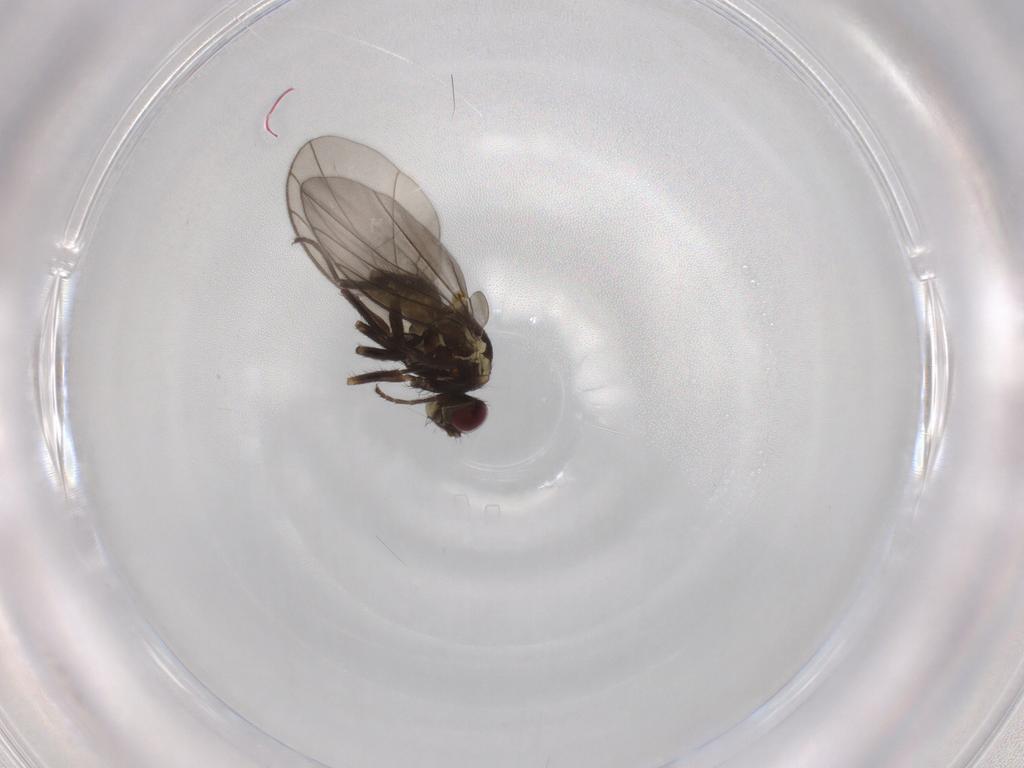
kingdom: Animalia
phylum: Arthropoda
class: Insecta
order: Diptera
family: Agromyzidae
